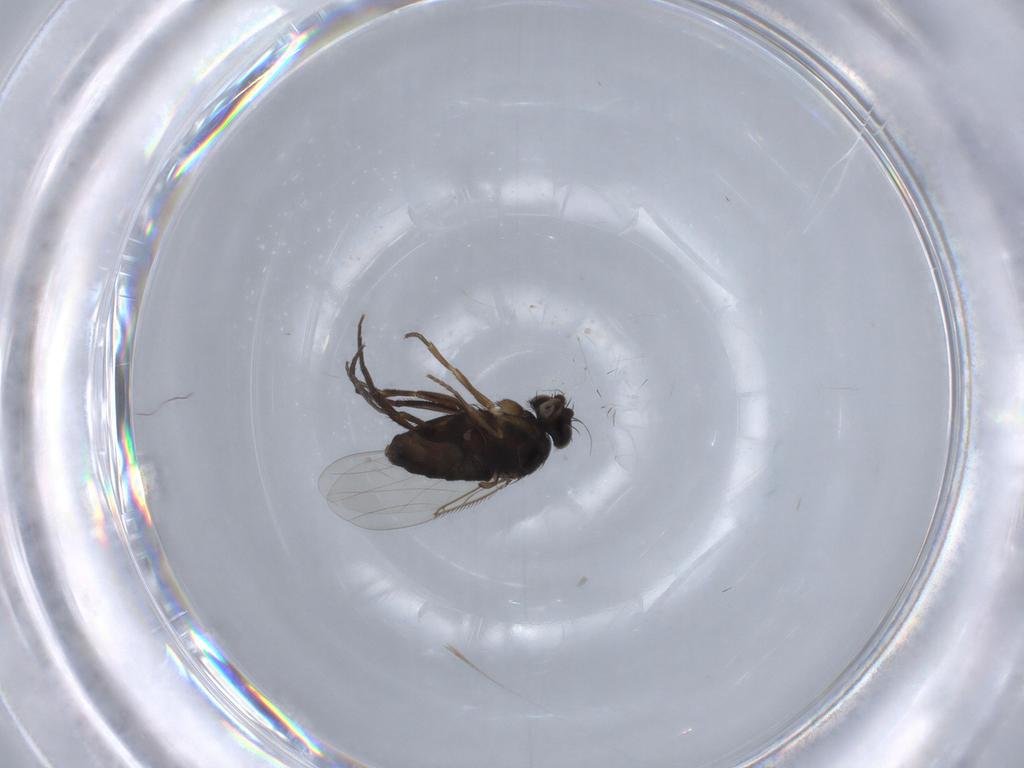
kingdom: Animalia
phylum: Arthropoda
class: Insecta
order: Diptera
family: Phoridae
